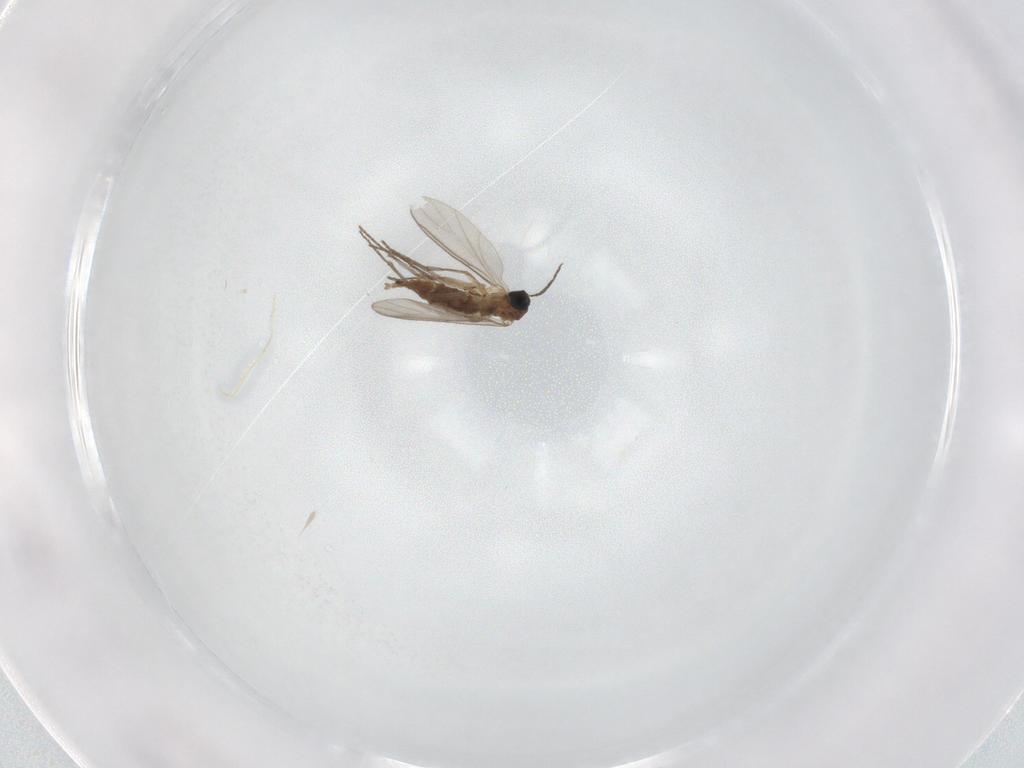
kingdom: Animalia
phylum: Arthropoda
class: Insecta
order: Diptera
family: Sciaridae
